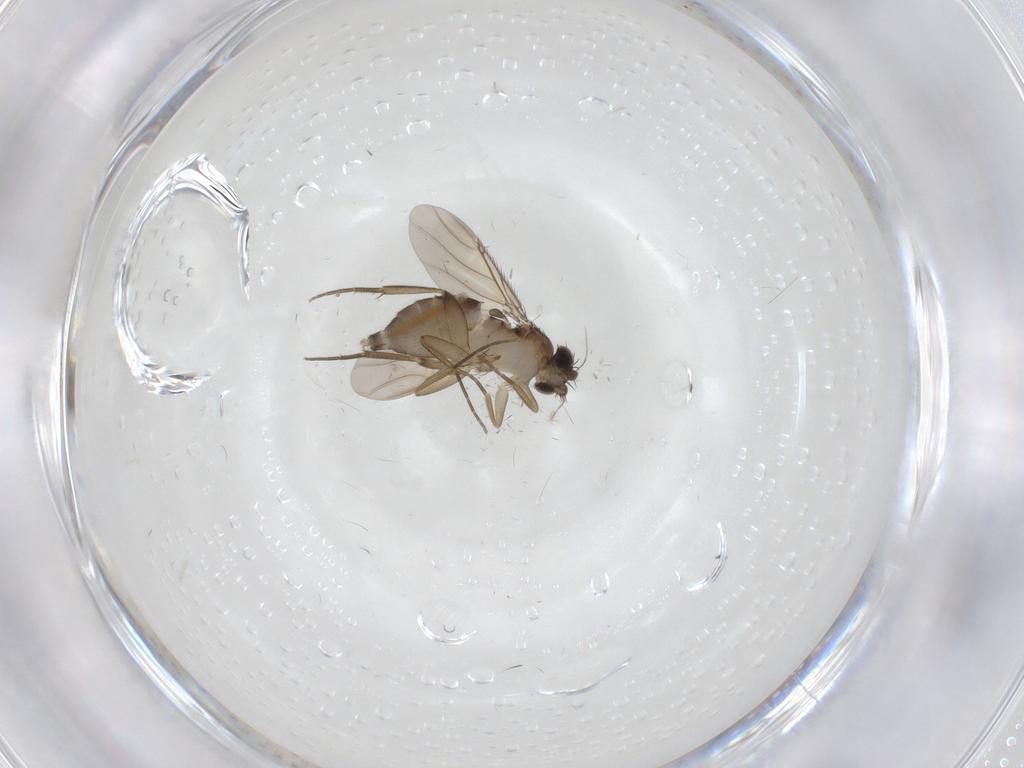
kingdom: Animalia
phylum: Arthropoda
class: Insecta
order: Diptera
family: Phoridae
